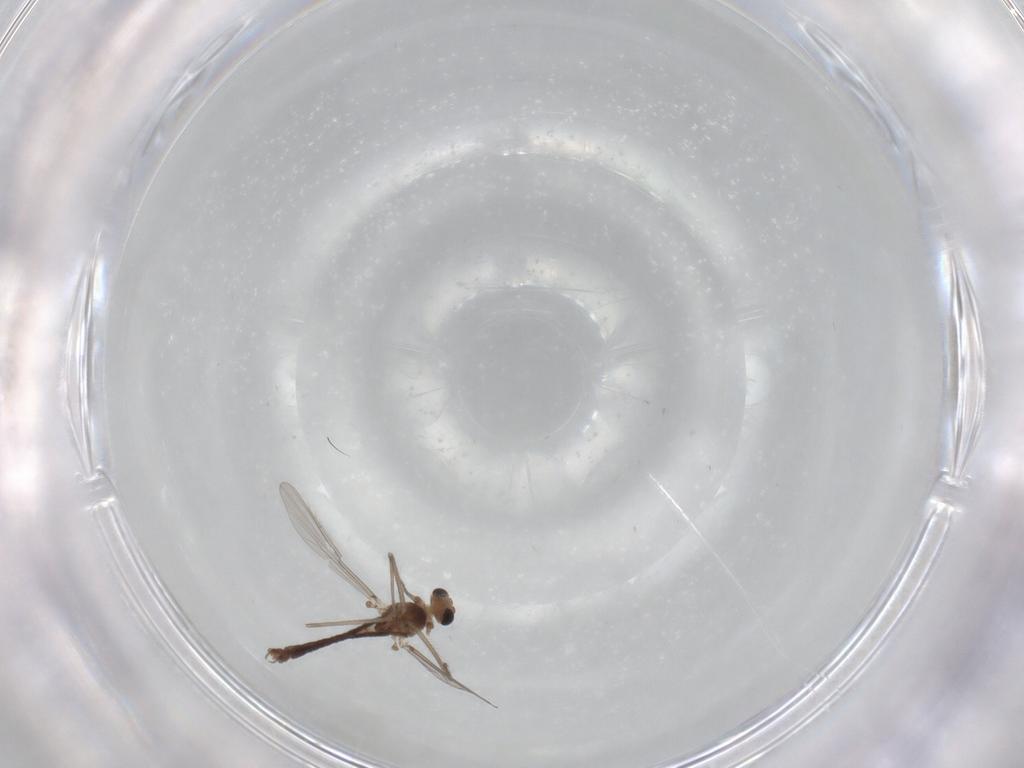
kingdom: Animalia
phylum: Arthropoda
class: Insecta
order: Diptera
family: Chironomidae
